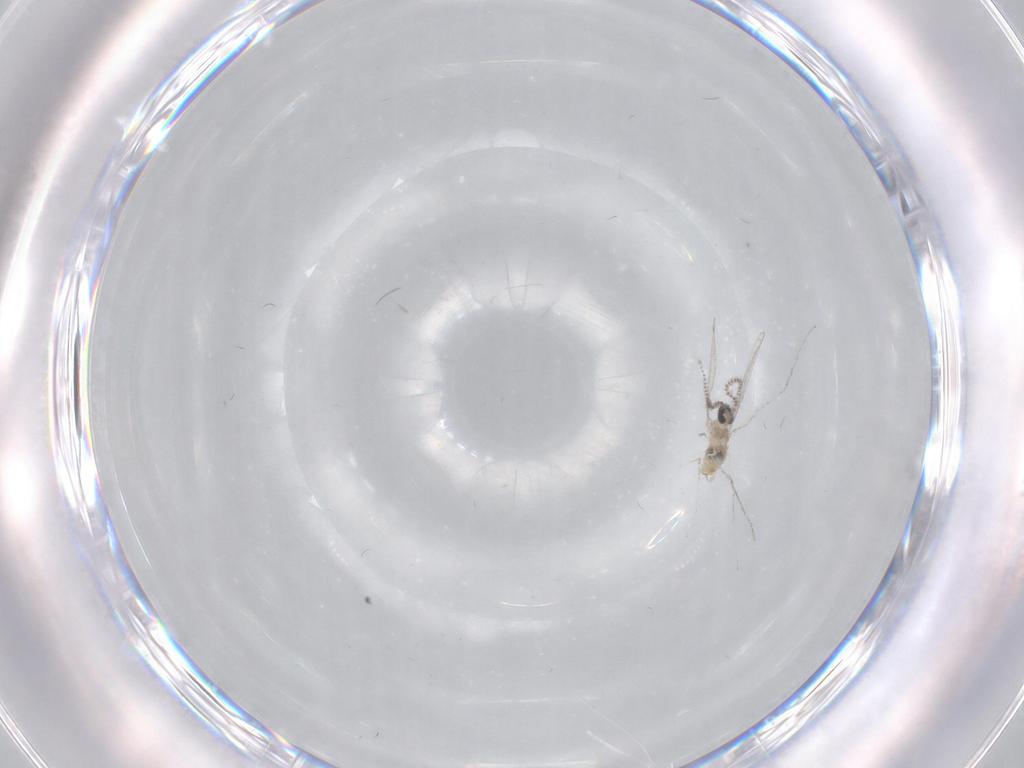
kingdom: Animalia
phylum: Arthropoda
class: Insecta
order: Diptera
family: Cecidomyiidae
